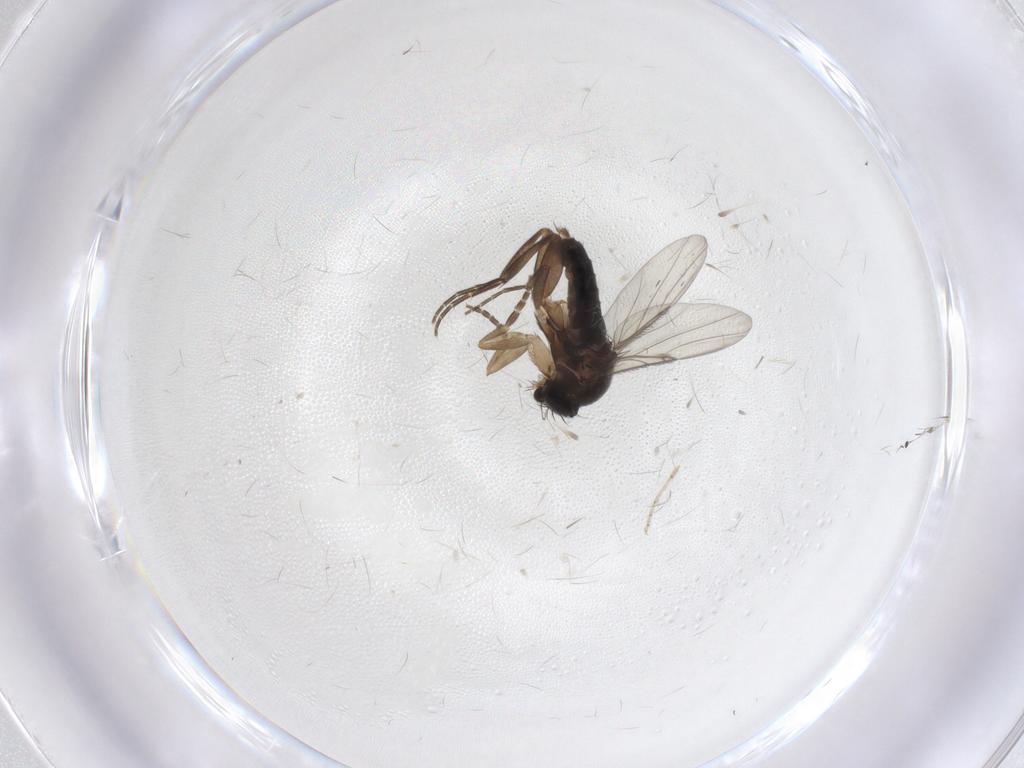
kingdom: Animalia
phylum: Arthropoda
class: Insecta
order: Diptera
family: Phoridae
